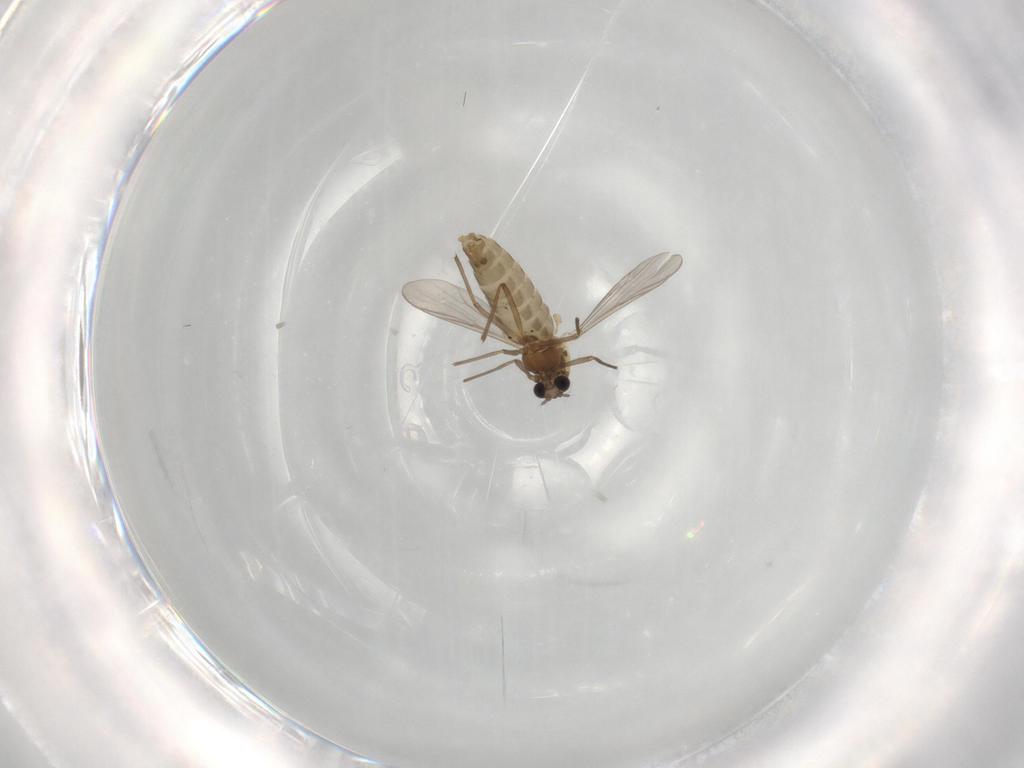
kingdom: Animalia
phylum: Arthropoda
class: Insecta
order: Diptera
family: Chironomidae
